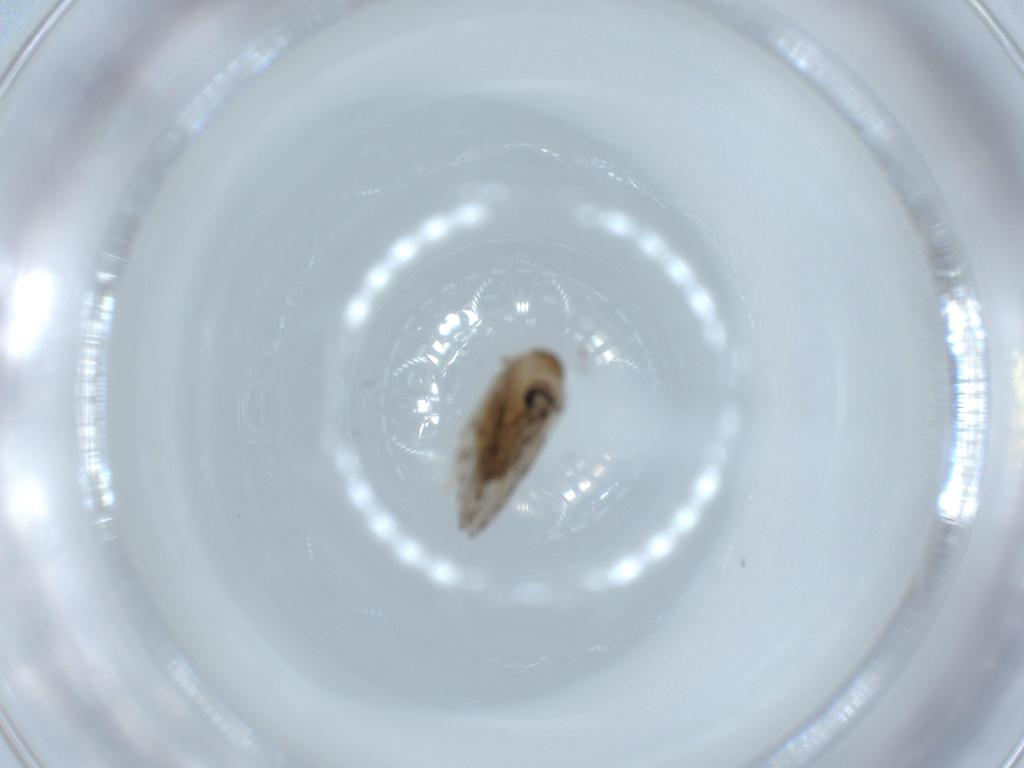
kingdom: Animalia
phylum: Arthropoda
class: Insecta
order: Diptera
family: Psychodidae
